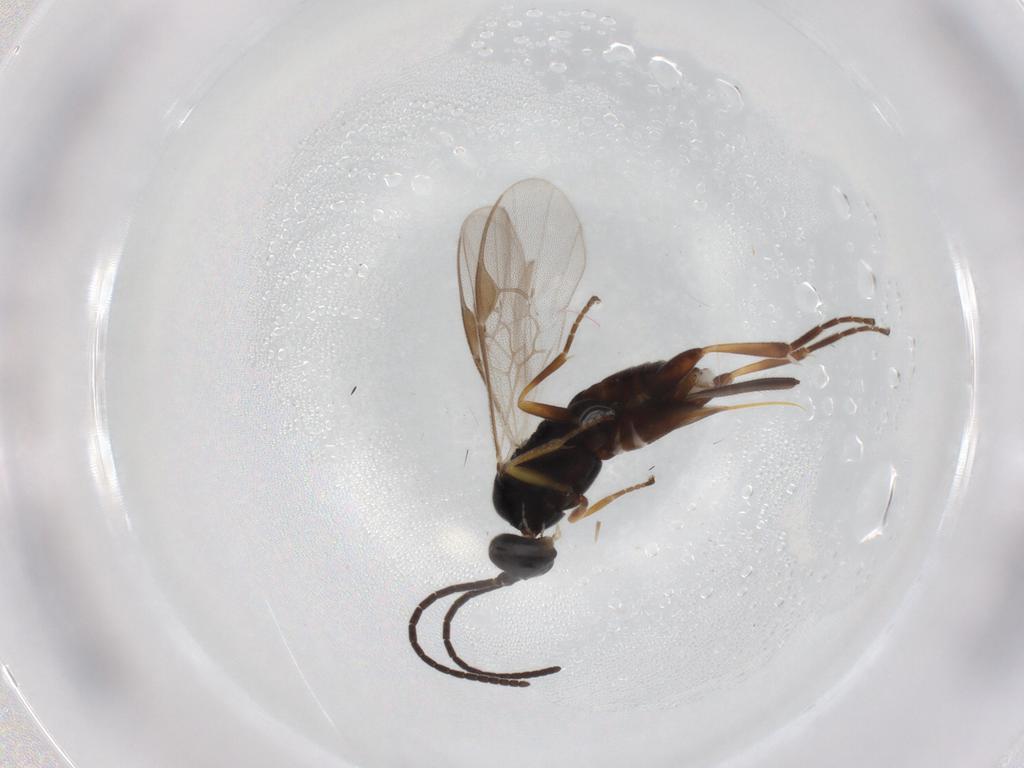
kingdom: Animalia
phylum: Arthropoda
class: Insecta
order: Hymenoptera
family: Braconidae
